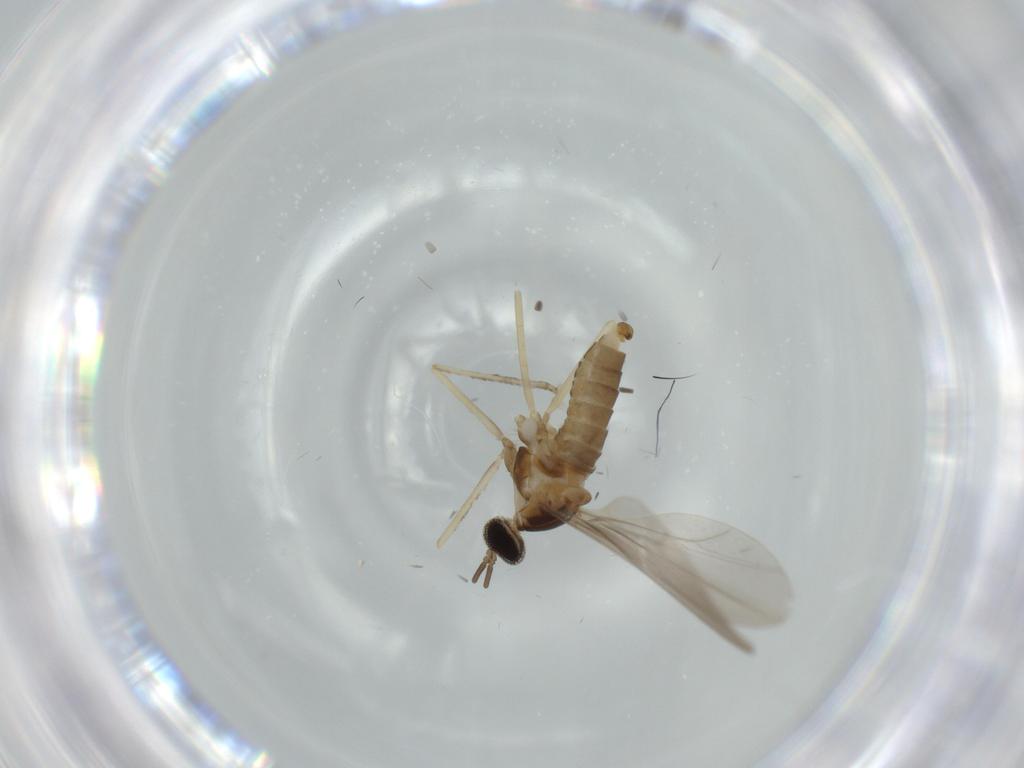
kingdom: Animalia
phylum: Arthropoda
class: Insecta
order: Diptera
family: Cecidomyiidae
